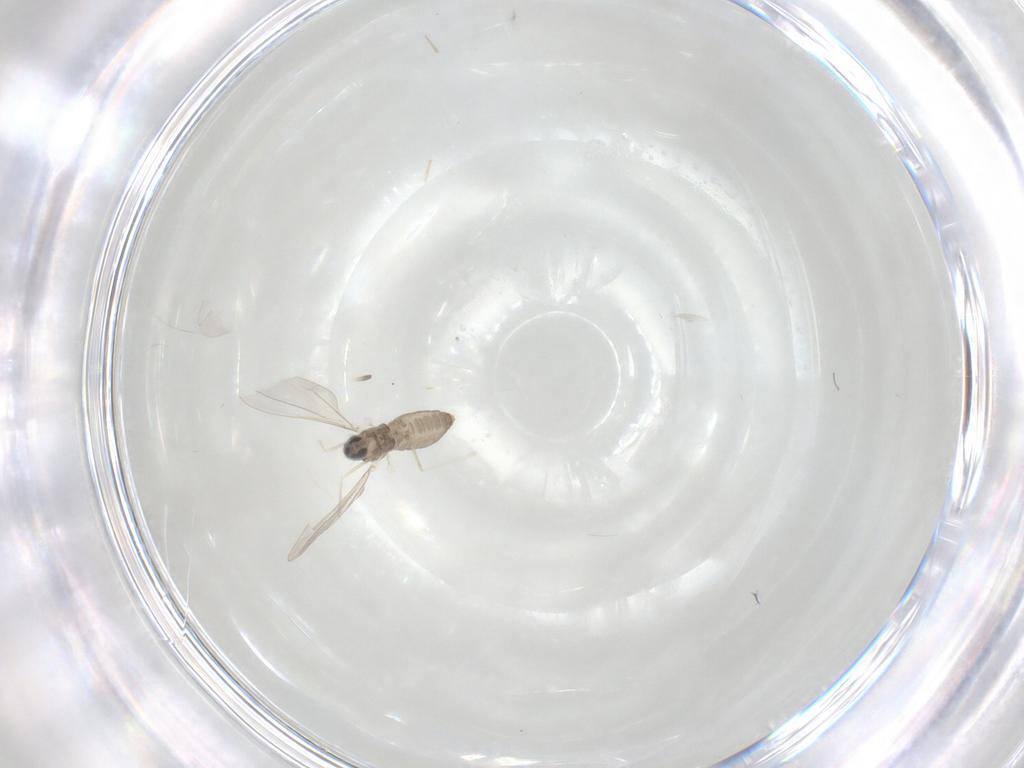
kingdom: Animalia
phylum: Arthropoda
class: Insecta
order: Diptera
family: Cecidomyiidae
